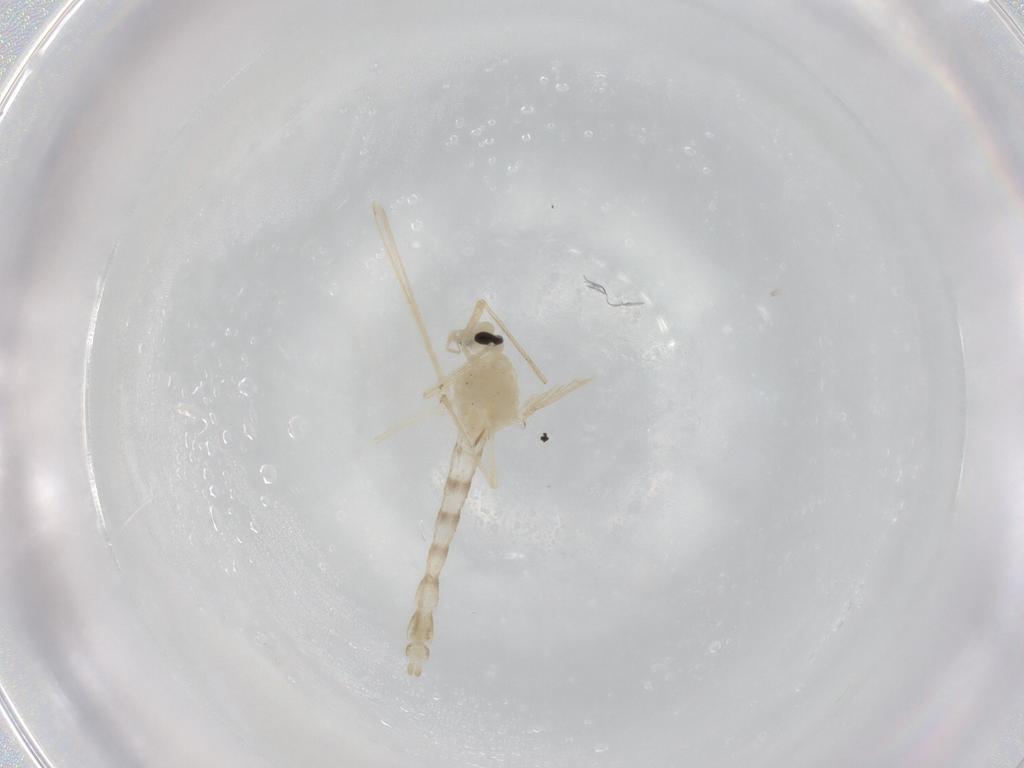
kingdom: Animalia
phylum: Arthropoda
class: Insecta
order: Diptera
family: Chironomidae
